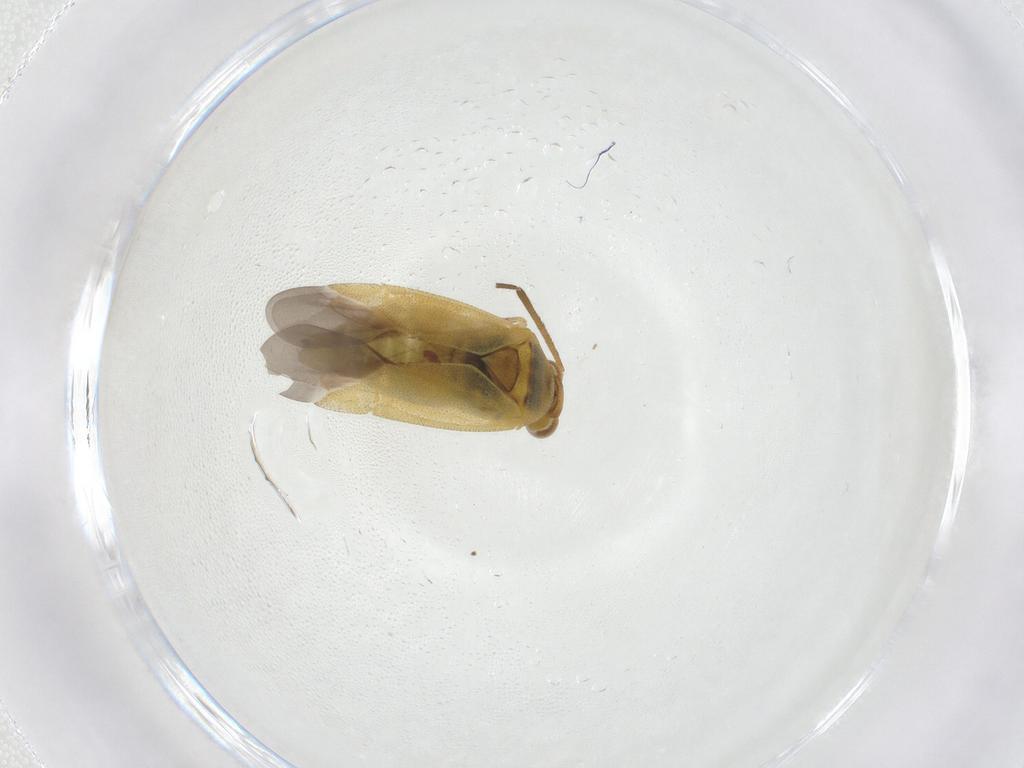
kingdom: Animalia
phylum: Arthropoda
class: Insecta
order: Hemiptera
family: Miridae
